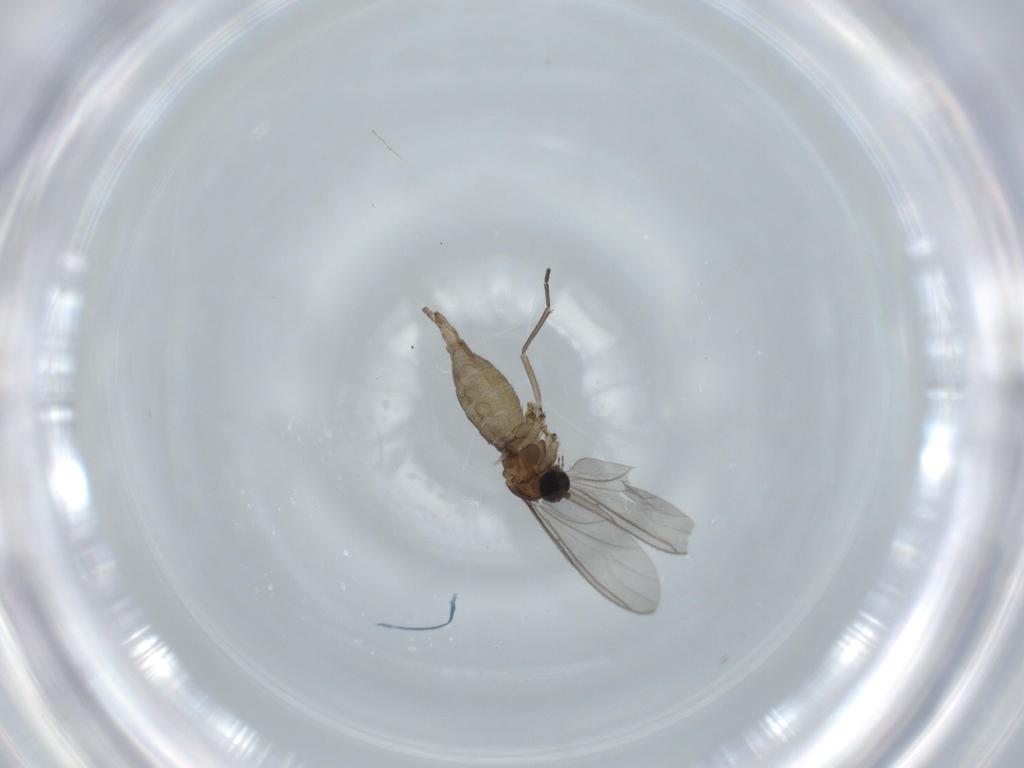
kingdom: Animalia
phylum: Arthropoda
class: Insecta
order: Diptera
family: Sciaridae
